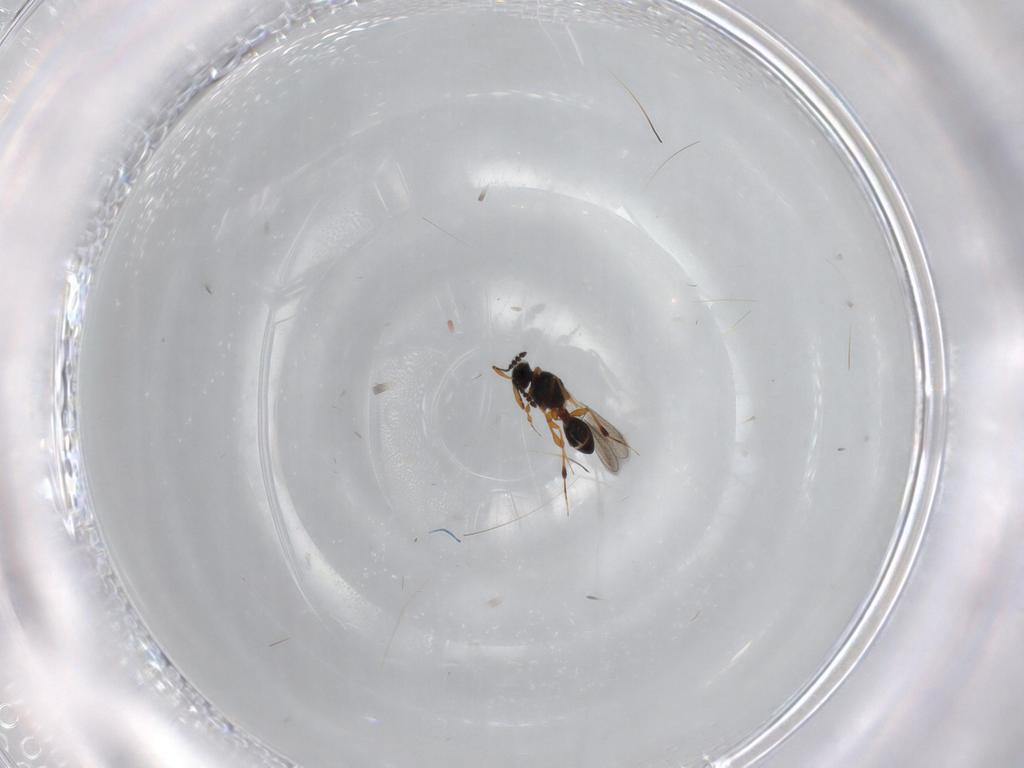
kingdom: Animalia
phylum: Arthropoda
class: Insecta
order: Hymenoptera
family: Platygastridae
